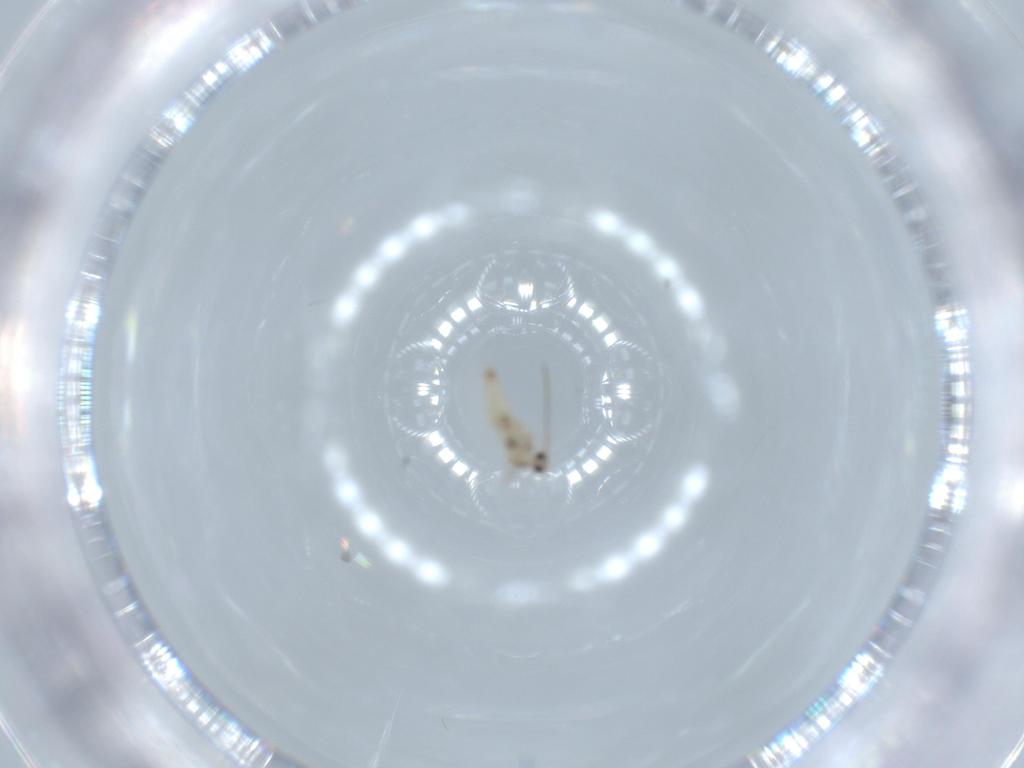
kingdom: Animalia
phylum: Arthropoda
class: Insecta
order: Diptera
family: Cecidomyiidae
